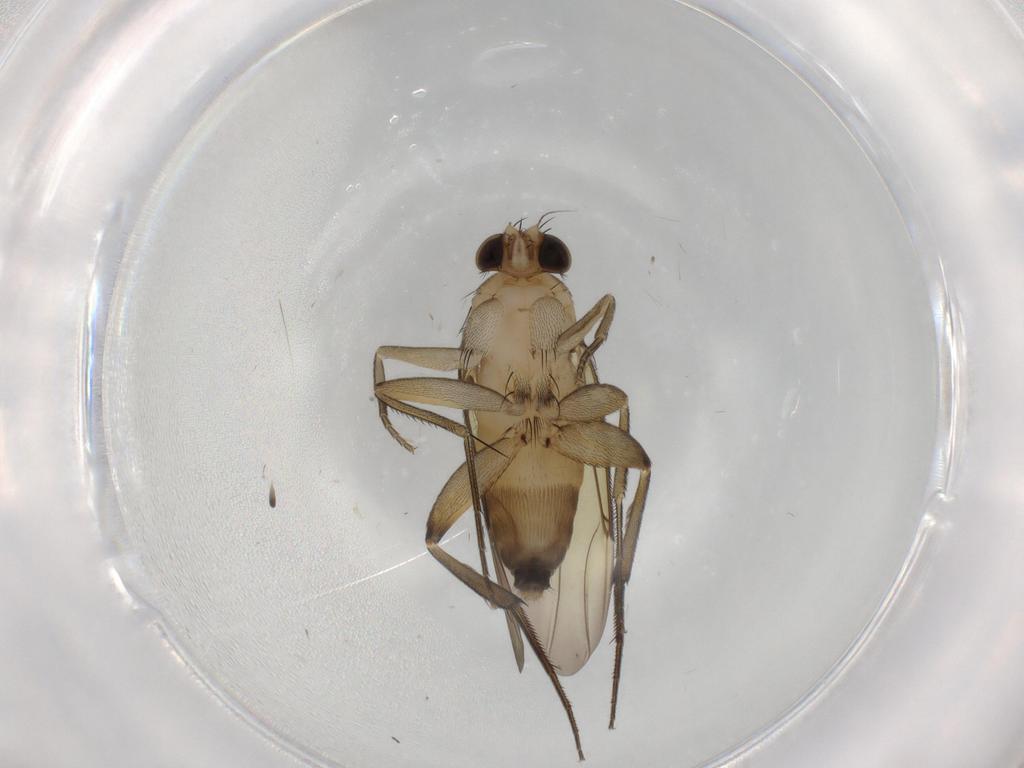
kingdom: Animalia
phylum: Arthropoda
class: Insecta
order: Diptera
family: Phoridae
